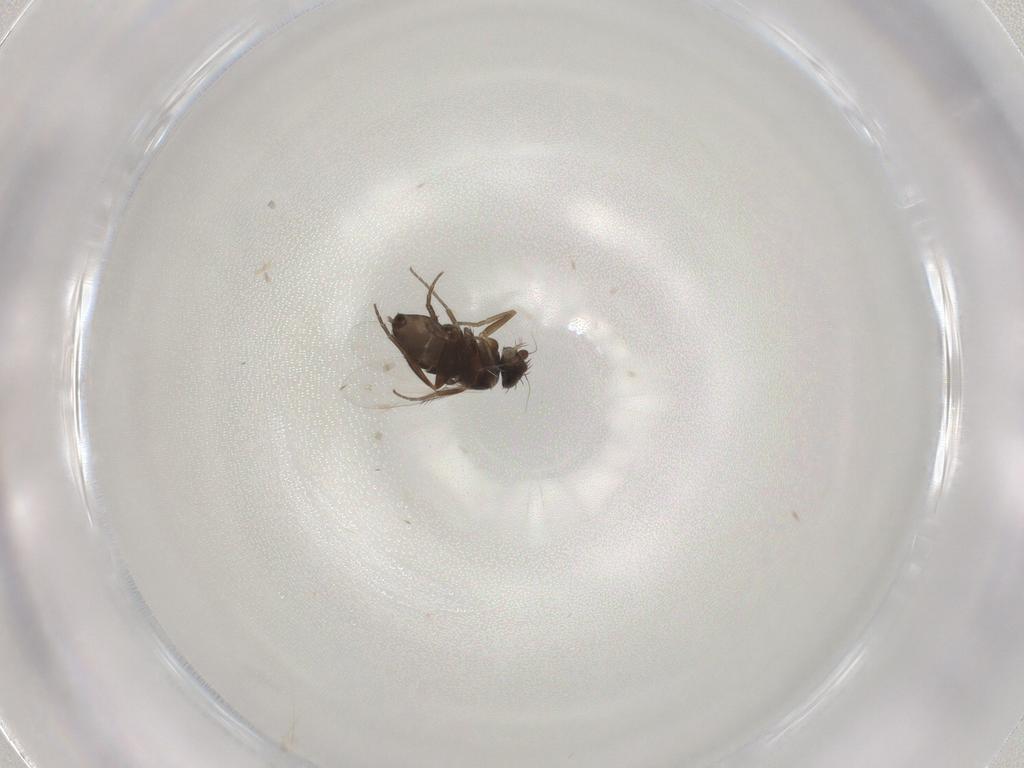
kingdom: Animalia
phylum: Arthropoda
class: Insecta
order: Diptera
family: Phoridae
